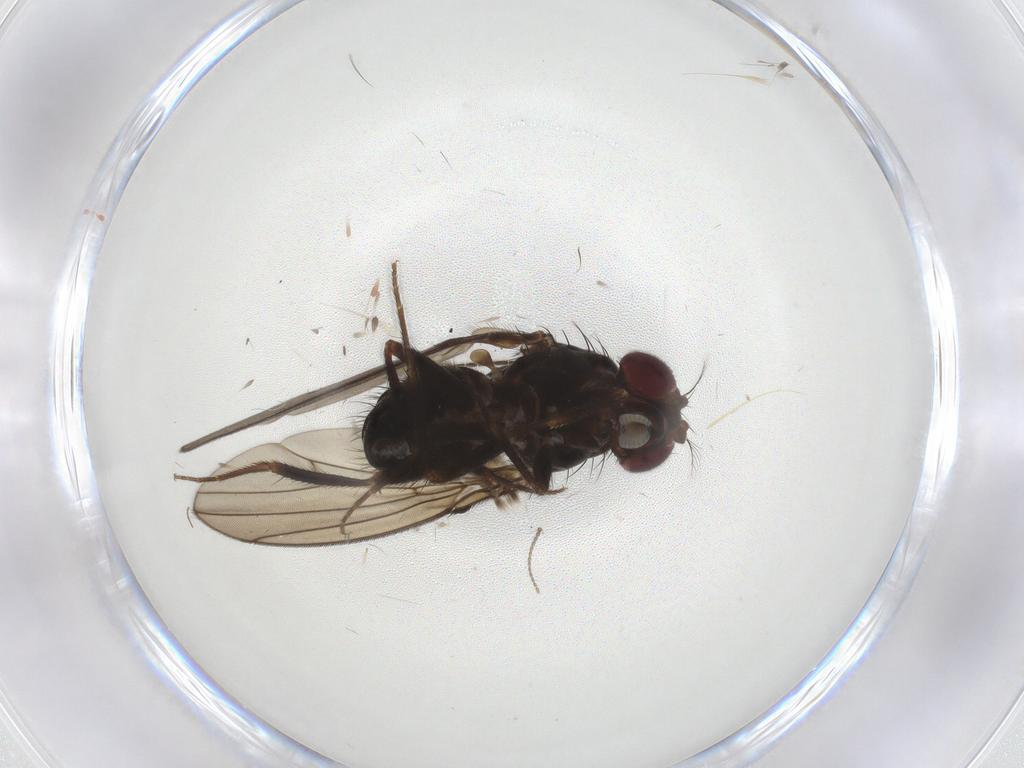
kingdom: Animalia
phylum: Arthropoda
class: Insecta
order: Diptera
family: Drosophilidae
